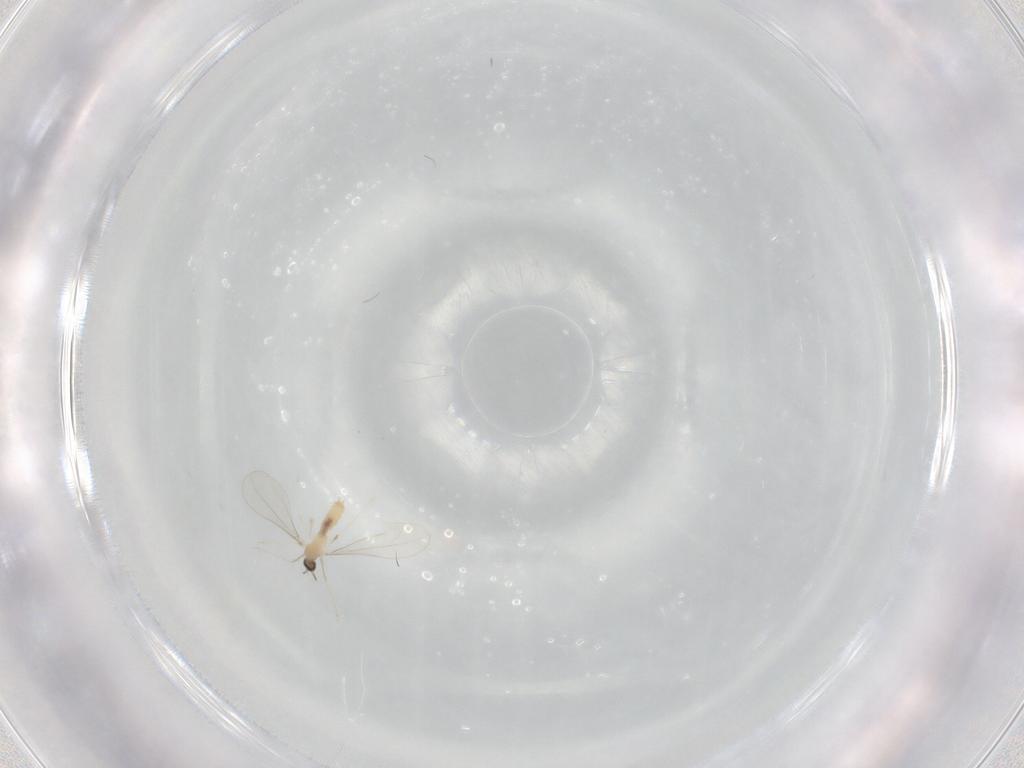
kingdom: Animalia
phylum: Arthropoda
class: Insecta
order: Diptera
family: Cecidomyiidae
